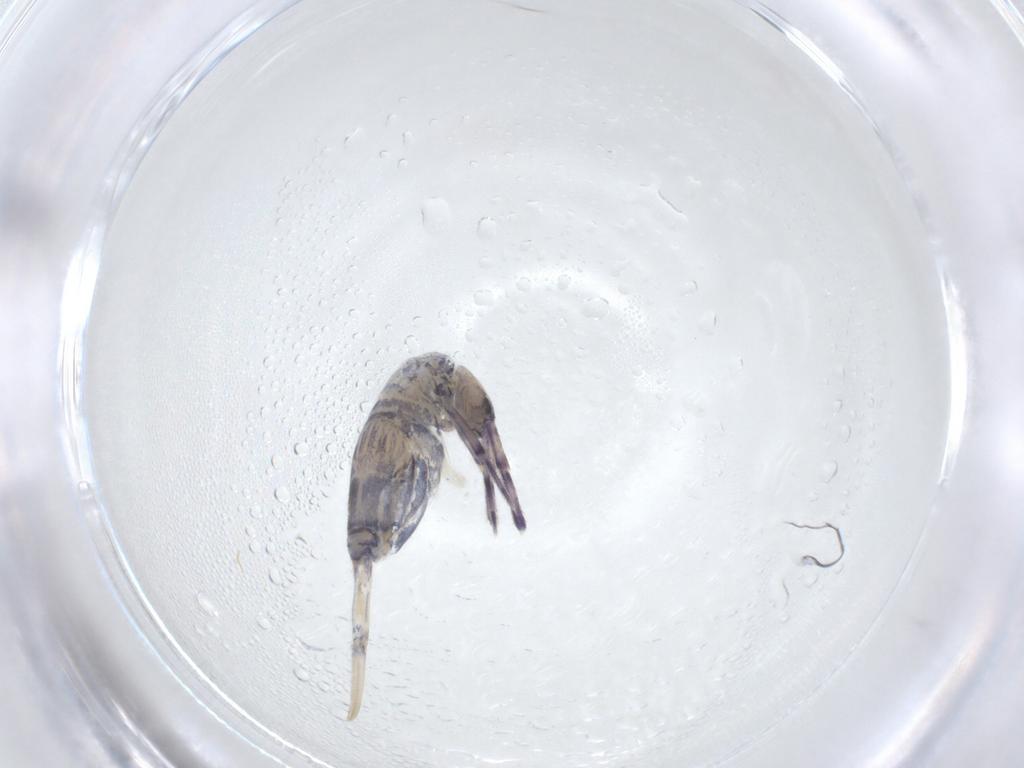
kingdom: Animalia
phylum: Arthropoda
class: Collembola
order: Entomobryomorpha
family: Entomobryidae
